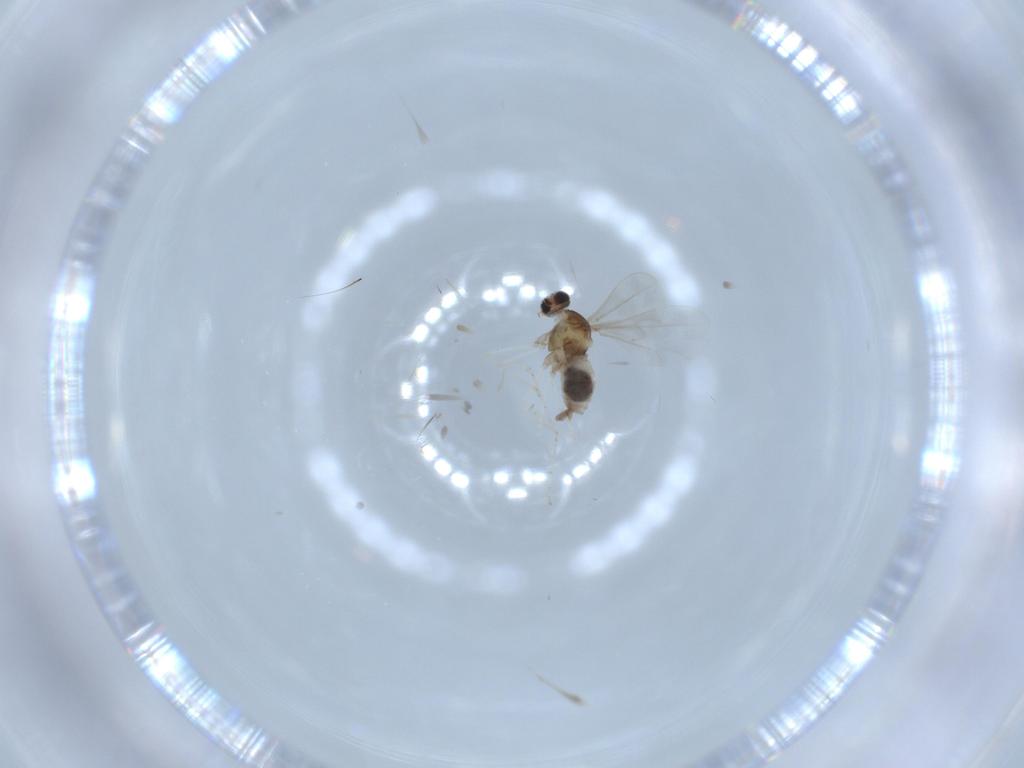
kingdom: Animalia
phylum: Arthropoda
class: Insecta
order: Diptera
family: Cecidomyiidae
